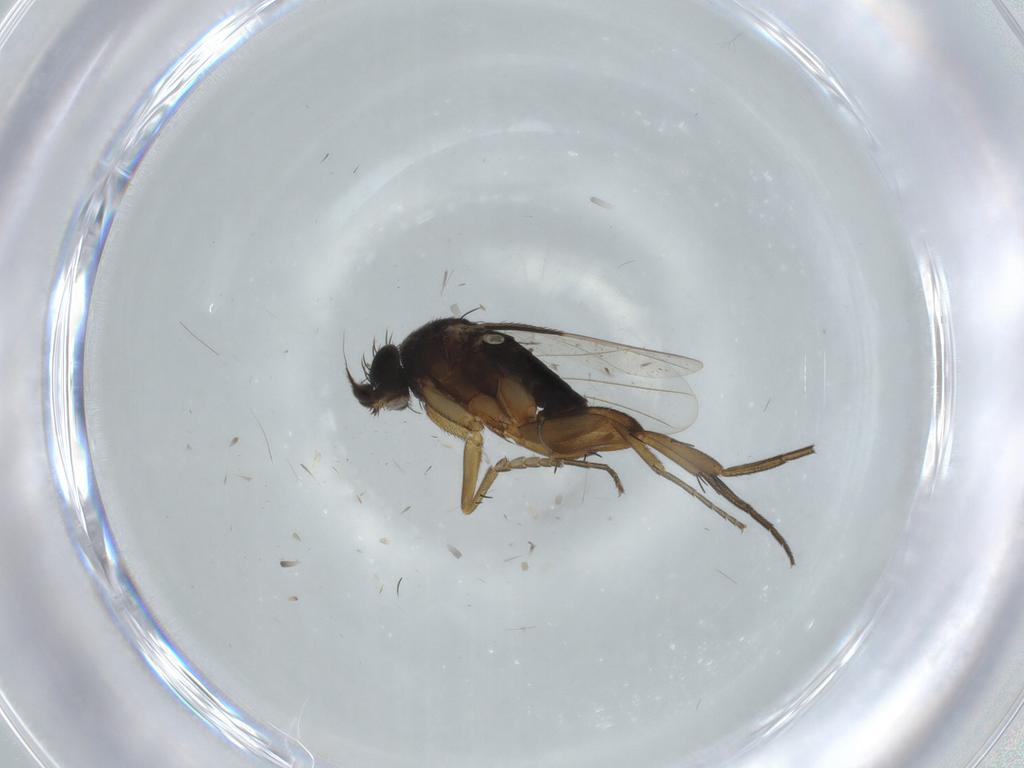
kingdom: Animalia
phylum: Arthropoda
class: Insecta
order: Diptera
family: Phoridae
